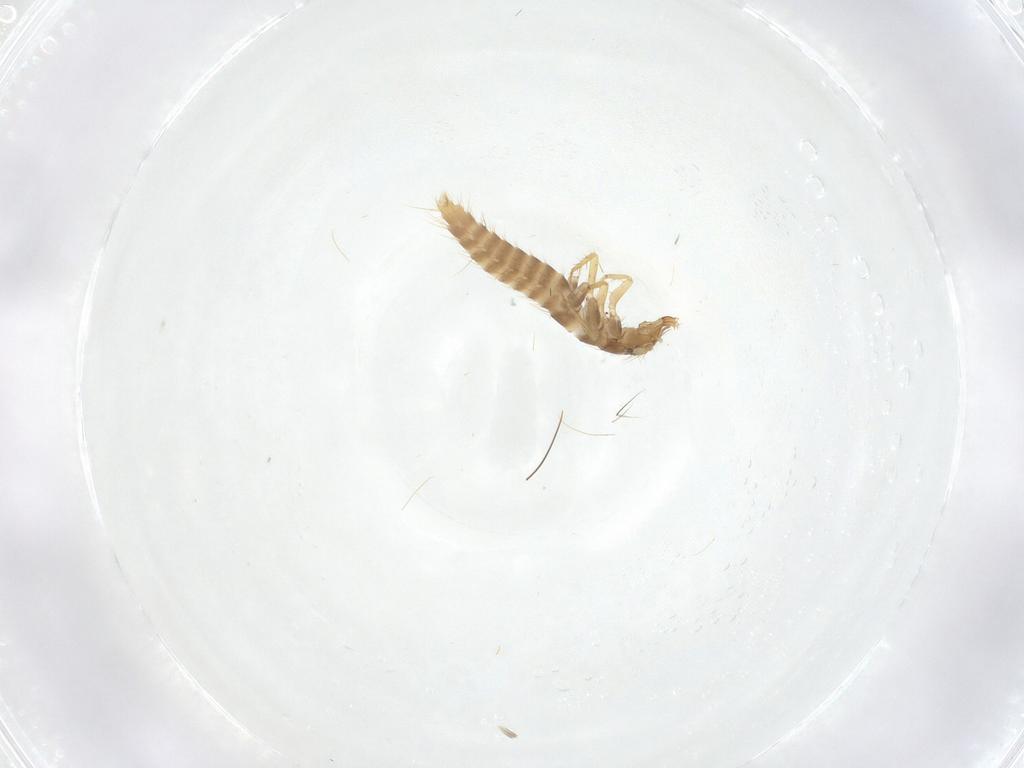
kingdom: Animalia
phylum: Arthropoda
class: Insecta
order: Coleoptera
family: Staphylinidae
